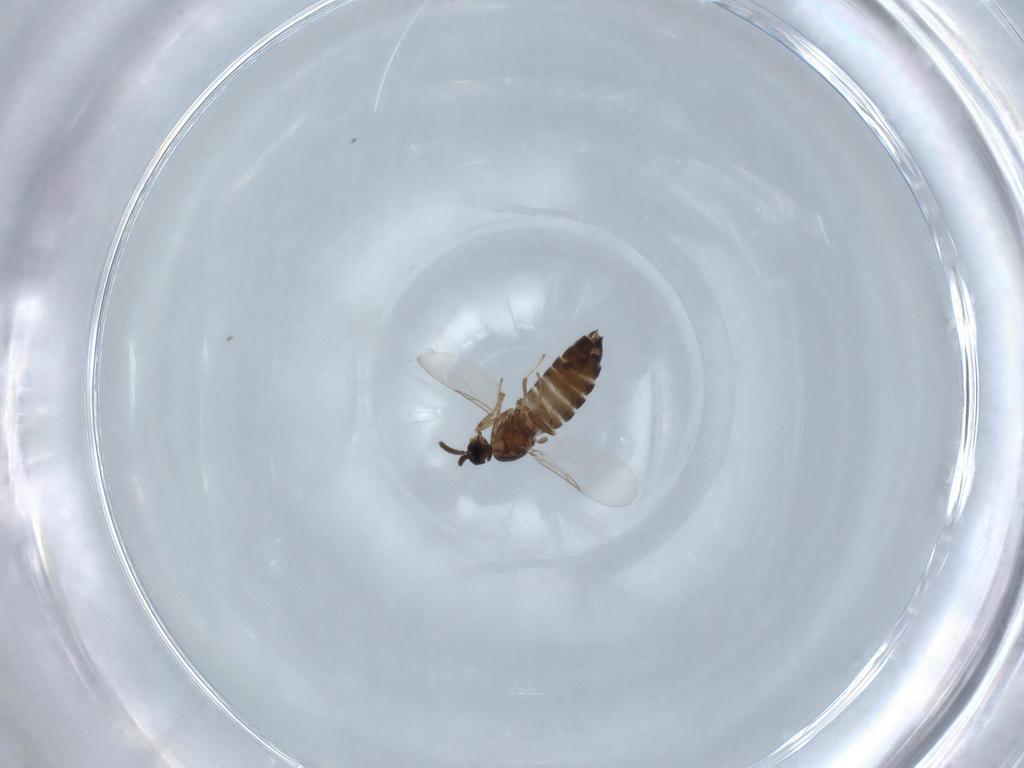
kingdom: Animalia
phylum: Arthropoda
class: Insecta
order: Diptera
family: Scatopsidae
